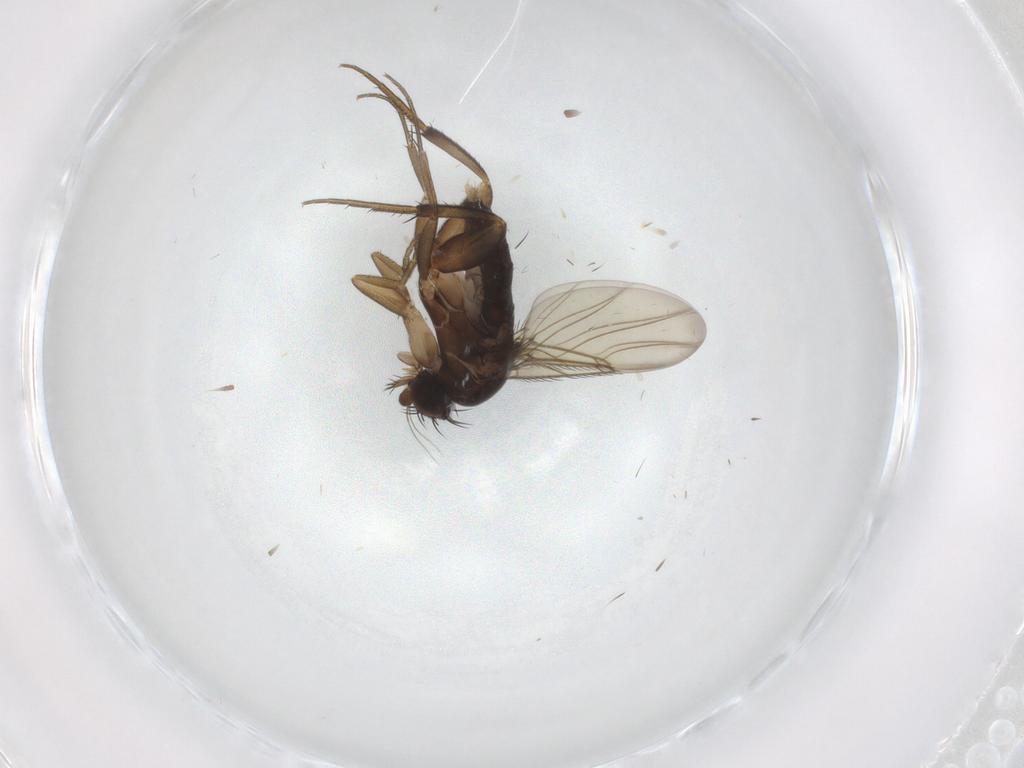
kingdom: Animalia
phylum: Arthropoda
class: Insecta
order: Diptera
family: Phoridae
